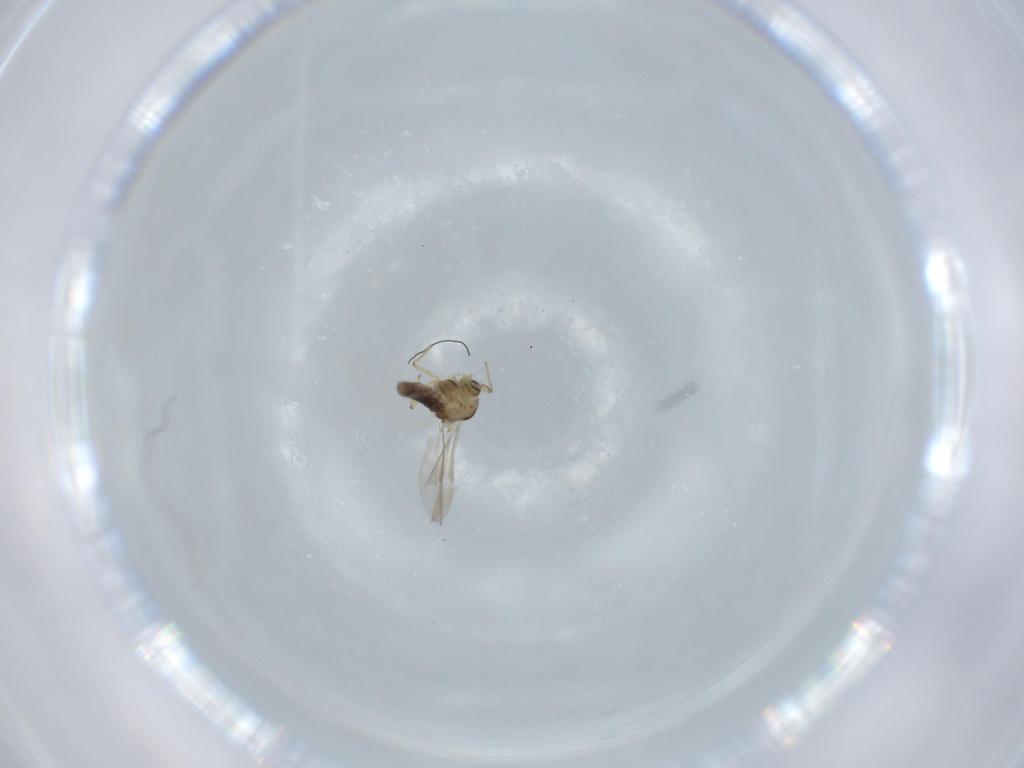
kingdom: Animalia
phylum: Arthropoda
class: Insecta
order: Diptera
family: Chironomidae
